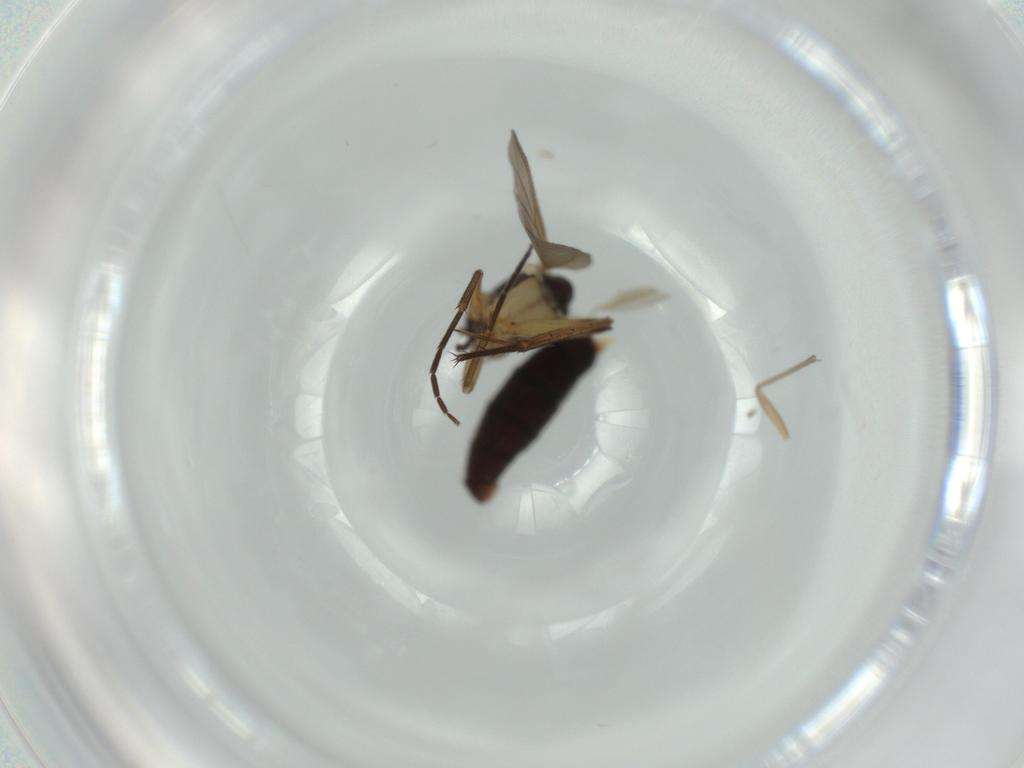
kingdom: Animalia
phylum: Arthropoda
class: Insecta
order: Diptera
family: Mycetophilidae
